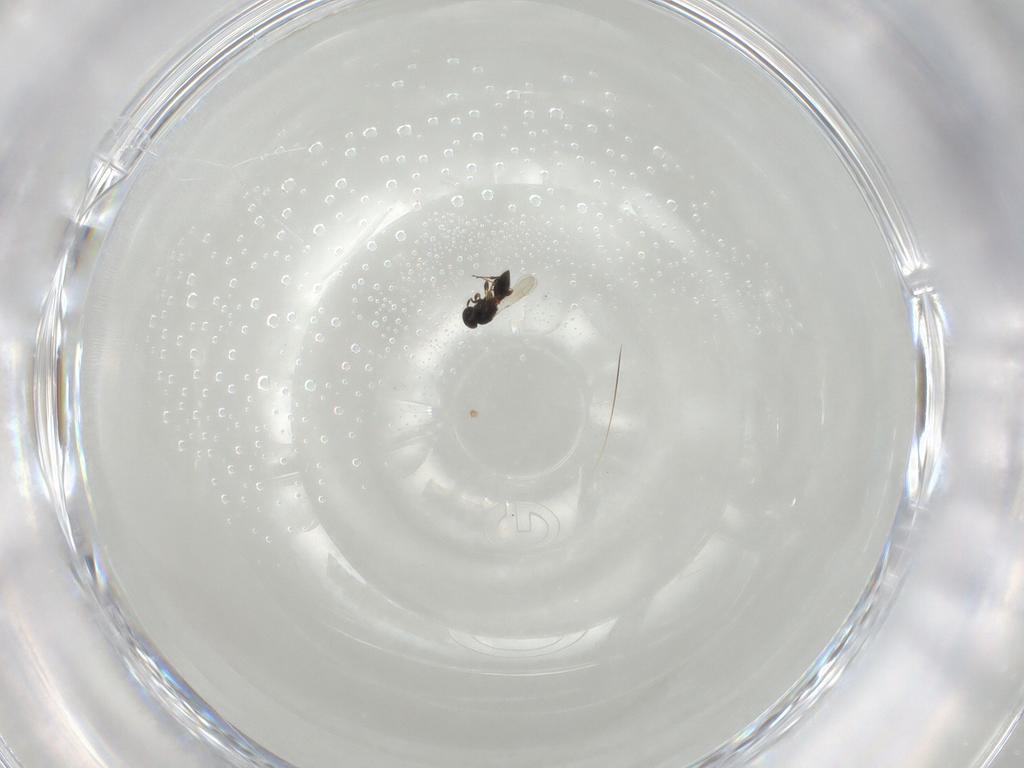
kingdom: Animalia
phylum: Arthropoda
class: Insecta
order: Hymenoptera
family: Platygastridae
